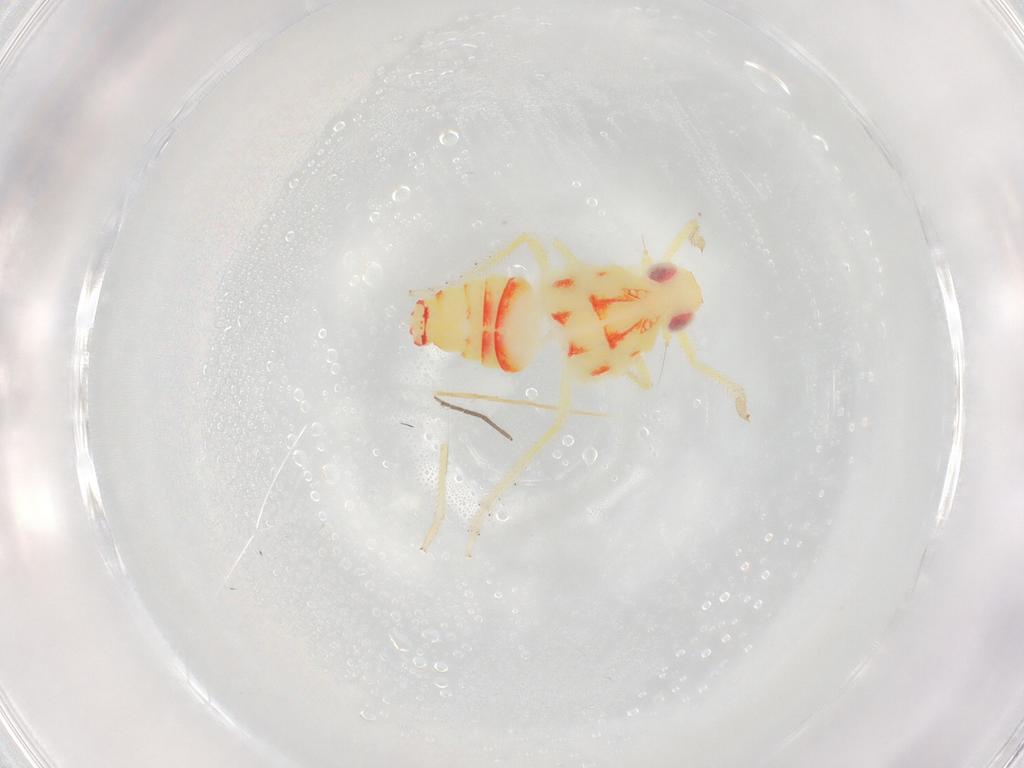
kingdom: Animalia
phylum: Arthropoda
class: Insecta
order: Hemiptera
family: Tropiduchidae
